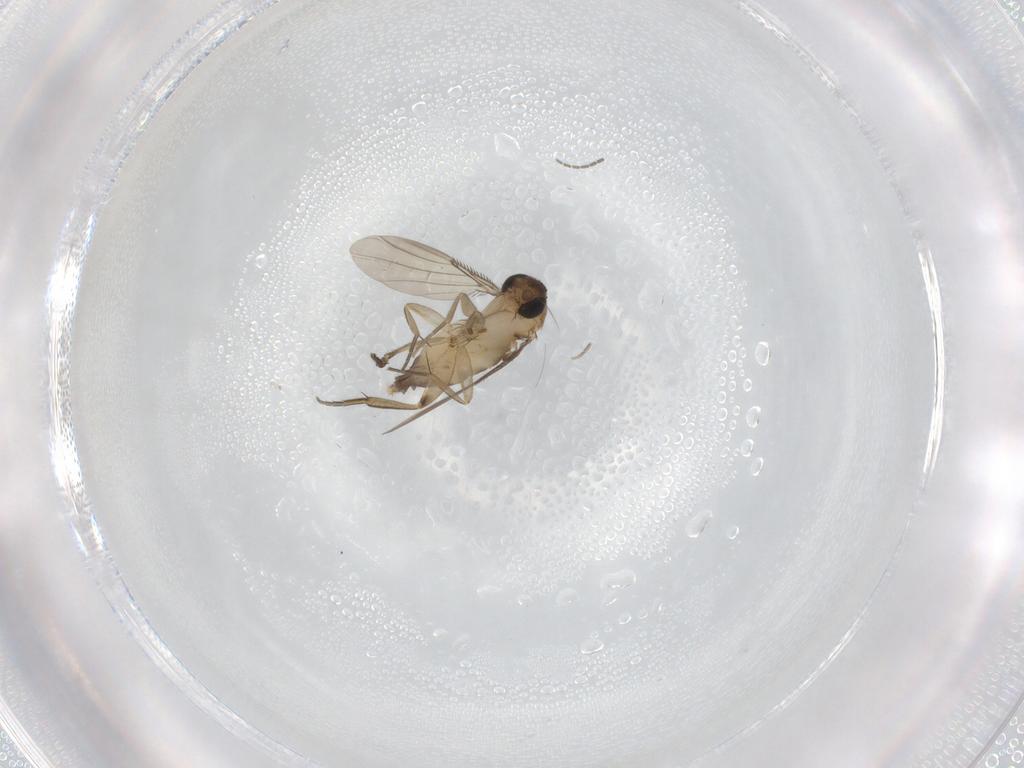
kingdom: Animalia
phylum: Arthropoda
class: Insecta
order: Diptera
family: Phoridae
